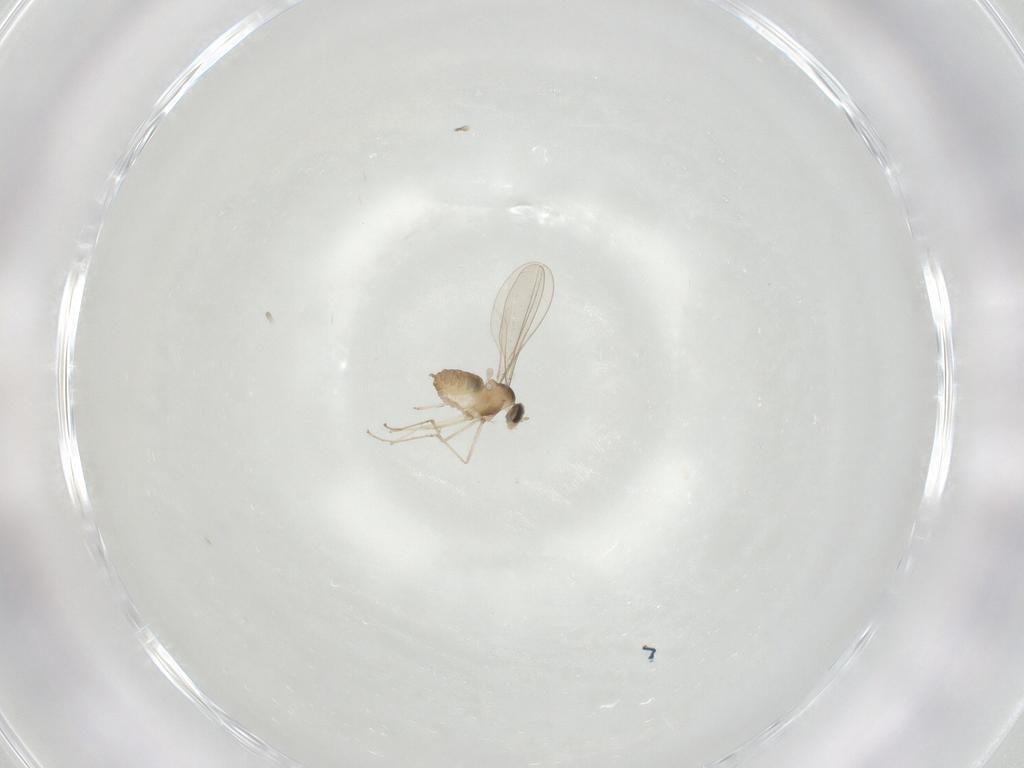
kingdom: Animalia
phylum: Arthropoda
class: Insecta
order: Diptera
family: Cecidomyiidae
